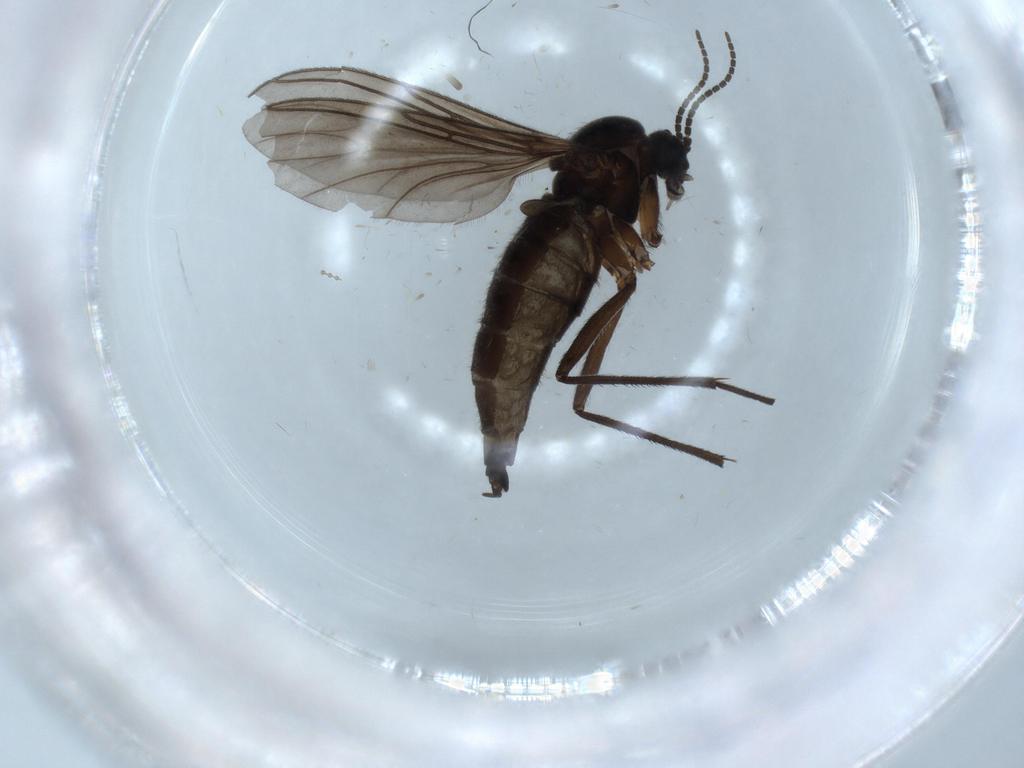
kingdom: Animalia
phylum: Arthropoda
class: Insecta
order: Diptera
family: Sciaridae
